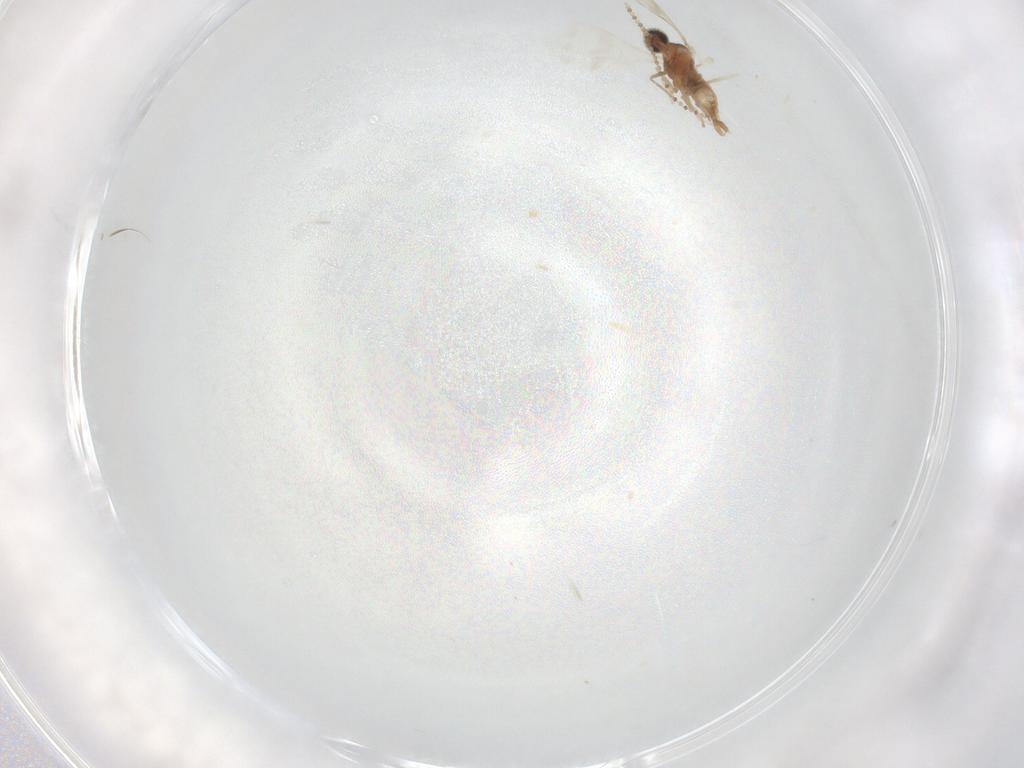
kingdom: Animalia
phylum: Arthropoda
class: Insecta
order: Diptera
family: Cecidomyiidae
